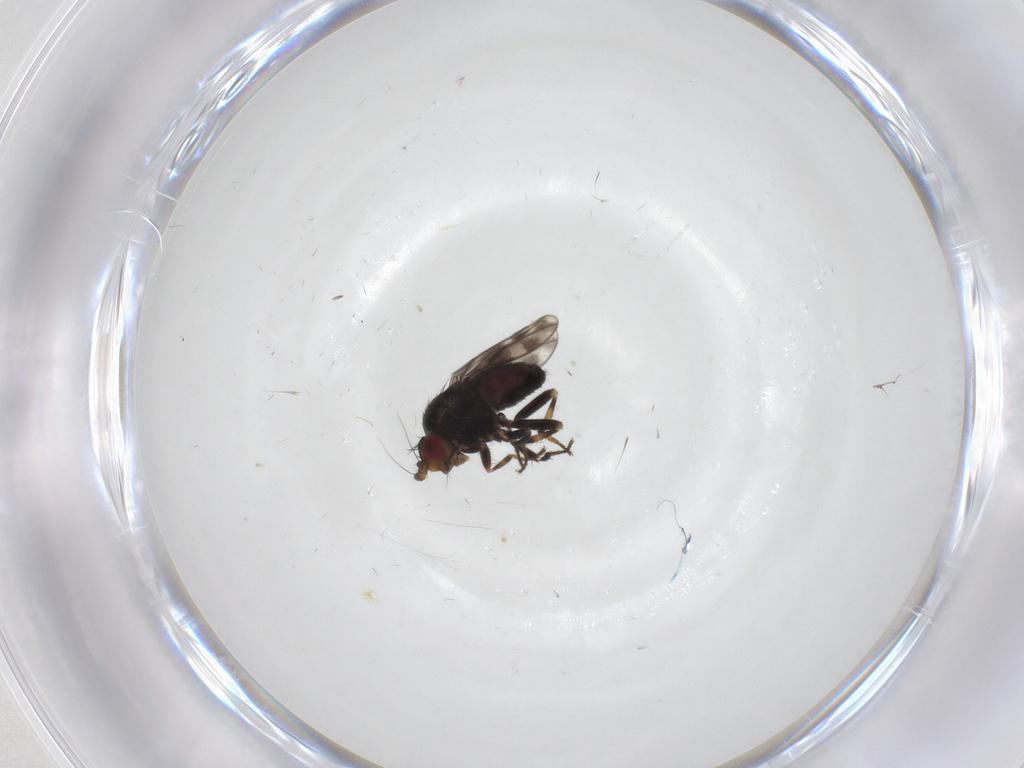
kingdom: Animalia
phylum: Arthropoda
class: Insecta
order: Diptera
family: Sphaeroceridae
